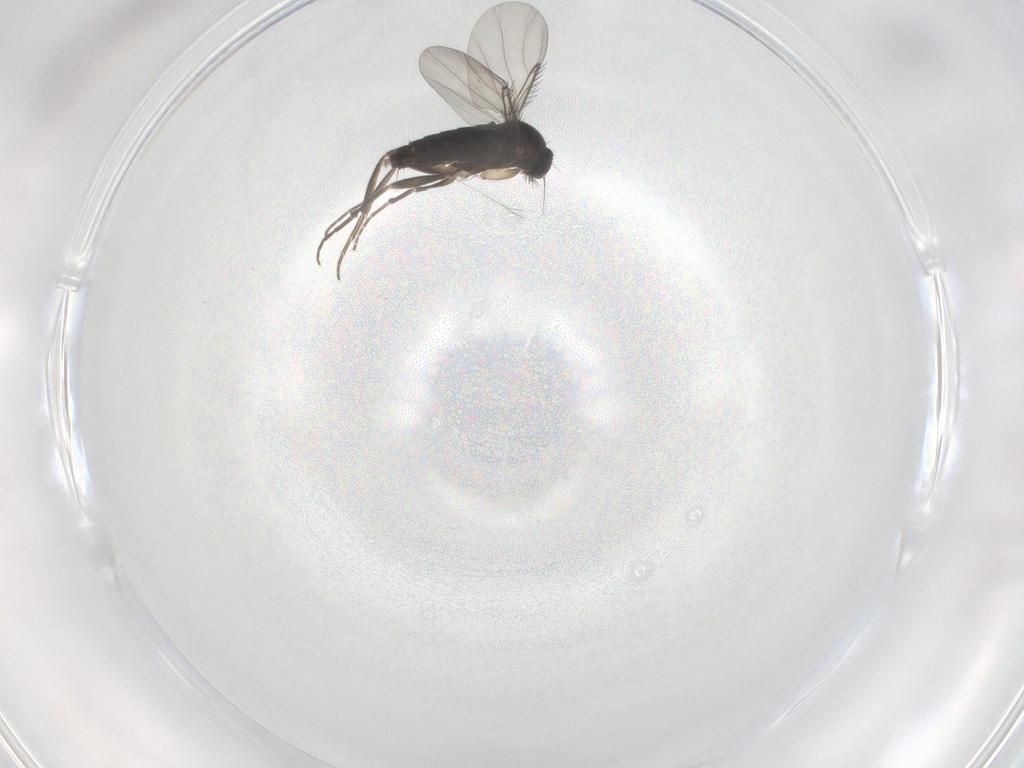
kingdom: Animalia
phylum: Arthropoda
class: Insecta
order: Diptera
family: Phoridae
